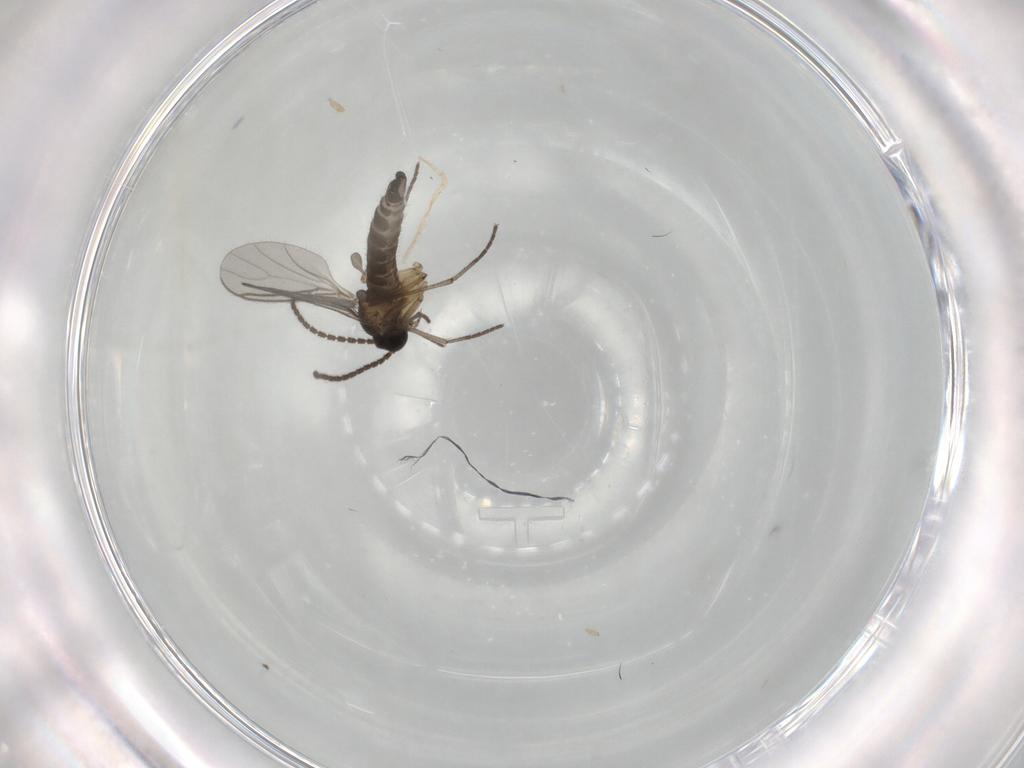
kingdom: Animalia
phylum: Arthropoda
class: Insecta
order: Diptera
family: Sciaridae
